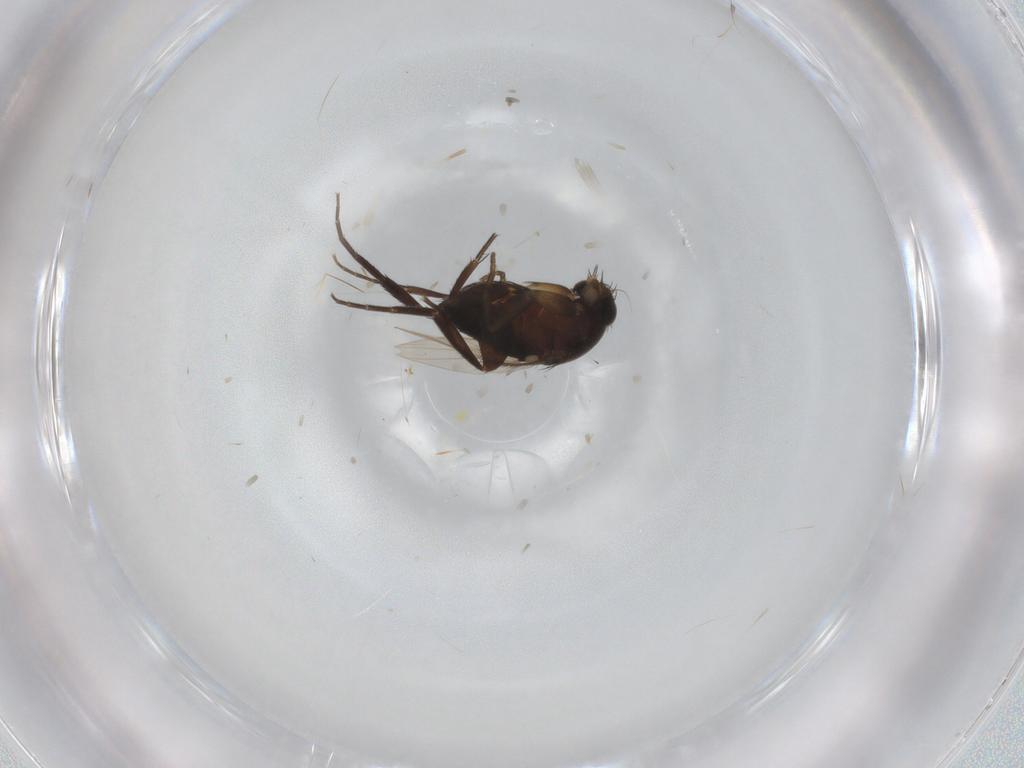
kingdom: Animalia
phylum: Arthropoda
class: Insecta
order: Diptera
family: Phoridae
